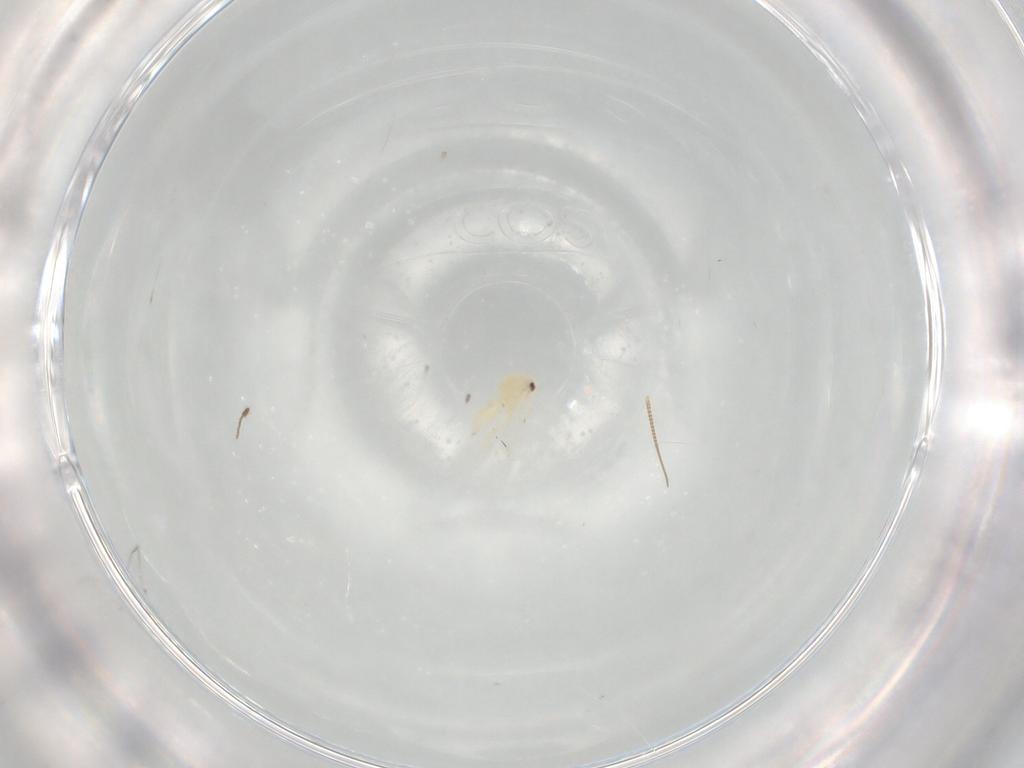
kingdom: Animalia
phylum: Arthropoda
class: Insecta
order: Hemiptera
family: Aleyrodidae
